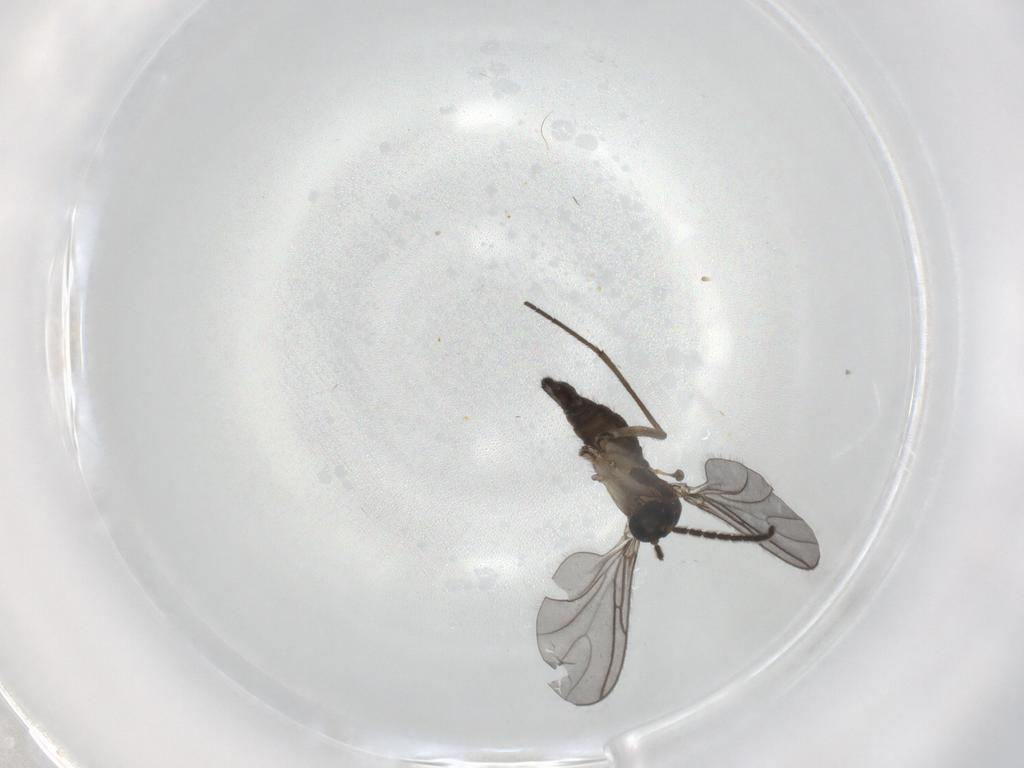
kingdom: Animalia
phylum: Arthropoda
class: Insecta
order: Diptera
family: Sciaridae
